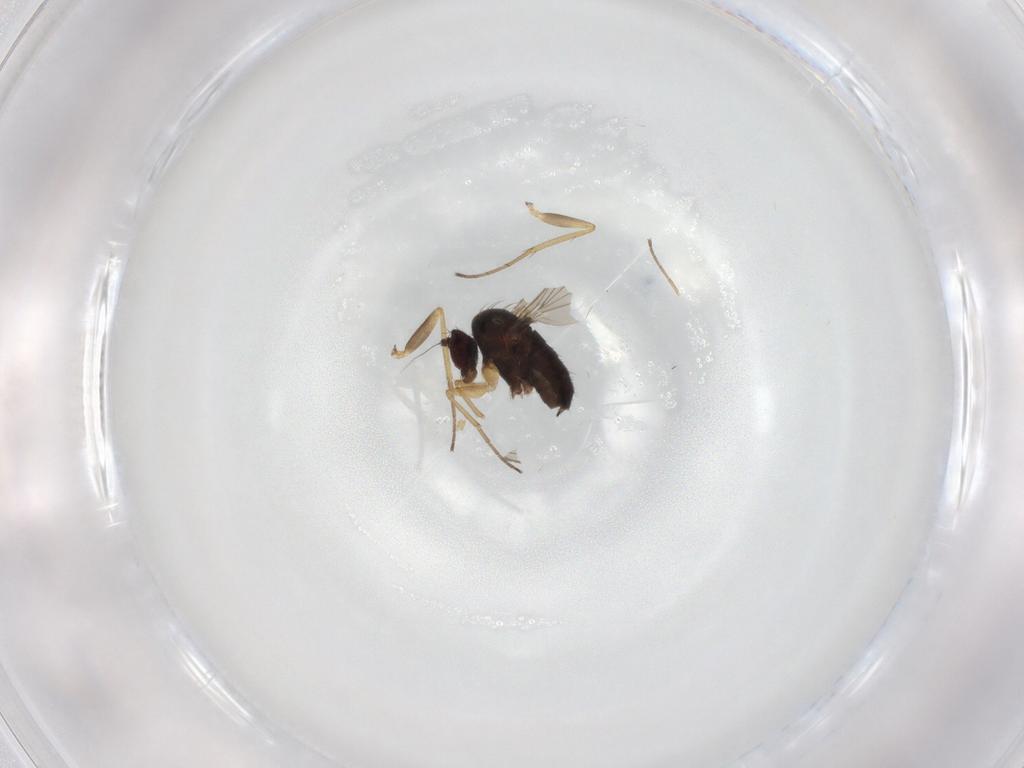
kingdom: Animalia
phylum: Arthropoda
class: Insecta
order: Diptera
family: Dolichopodidae
